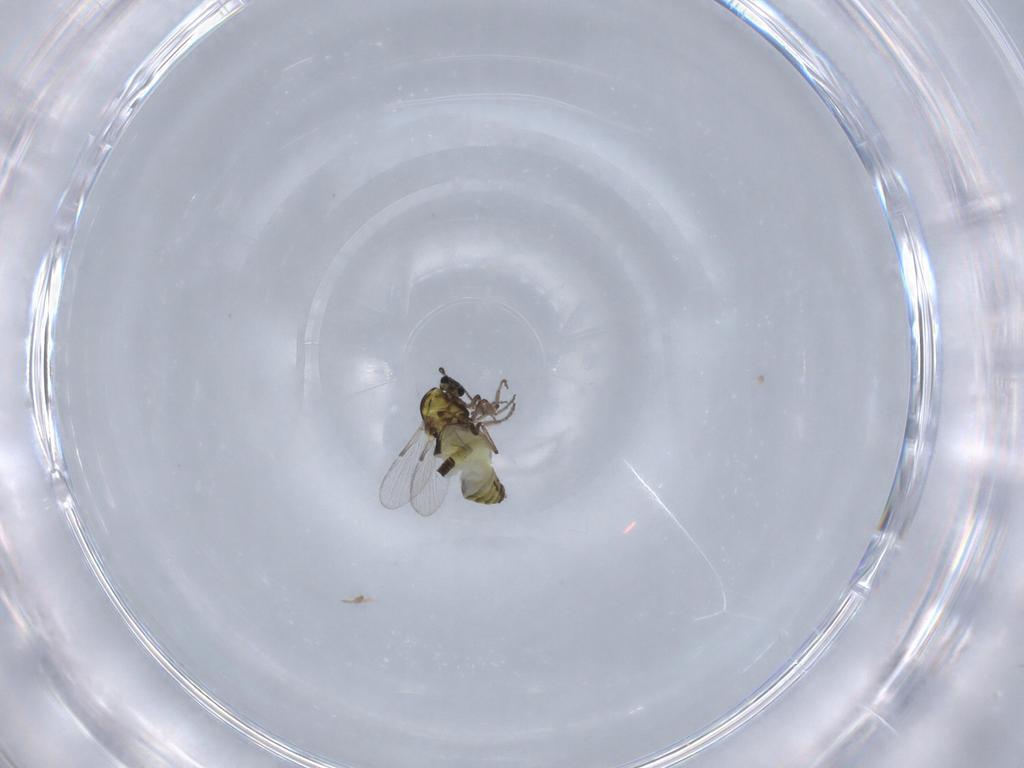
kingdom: Animalia
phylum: Arthropoda
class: Insecta
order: Diptera
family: Ceratopogonidae
